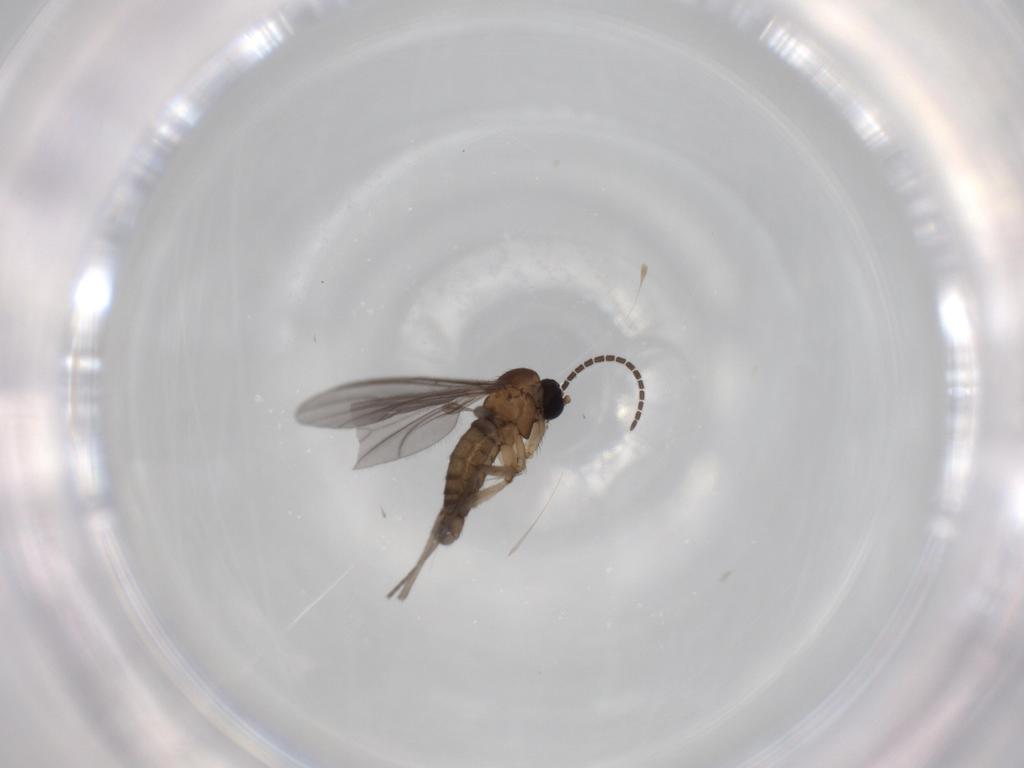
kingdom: Animalia
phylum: Arthropoda
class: Insecta
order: Diptera
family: Sciaridae
